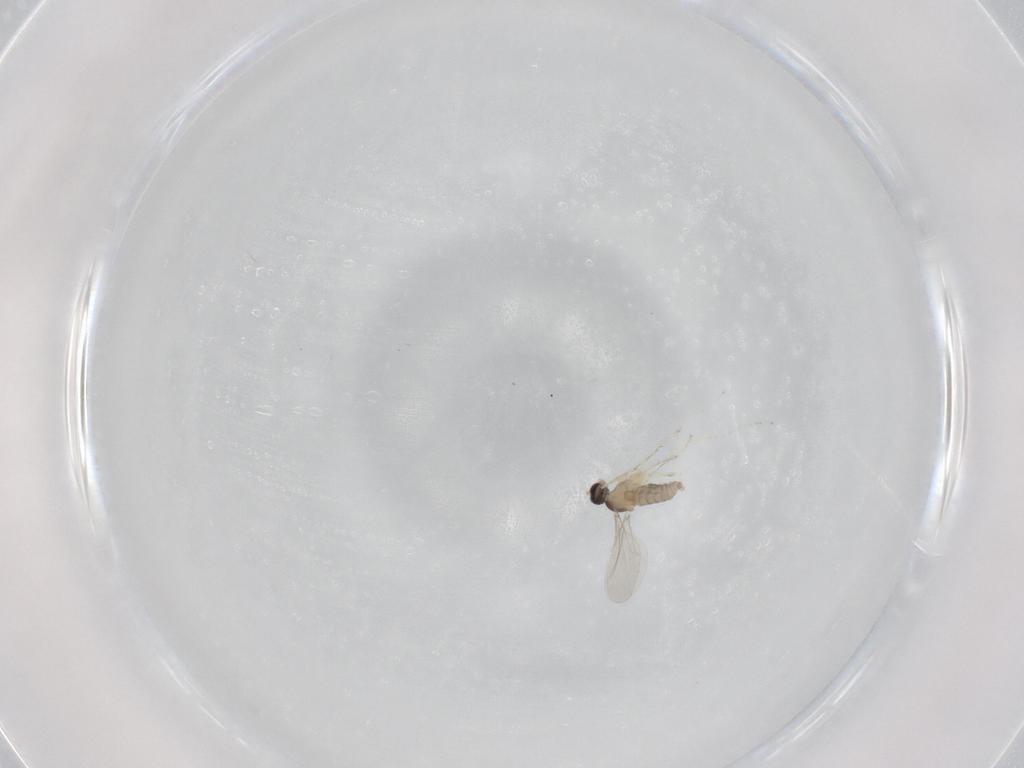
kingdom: Animalia
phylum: Arthropoda
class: Insecta
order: Diptera
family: Cecidomyiidae
